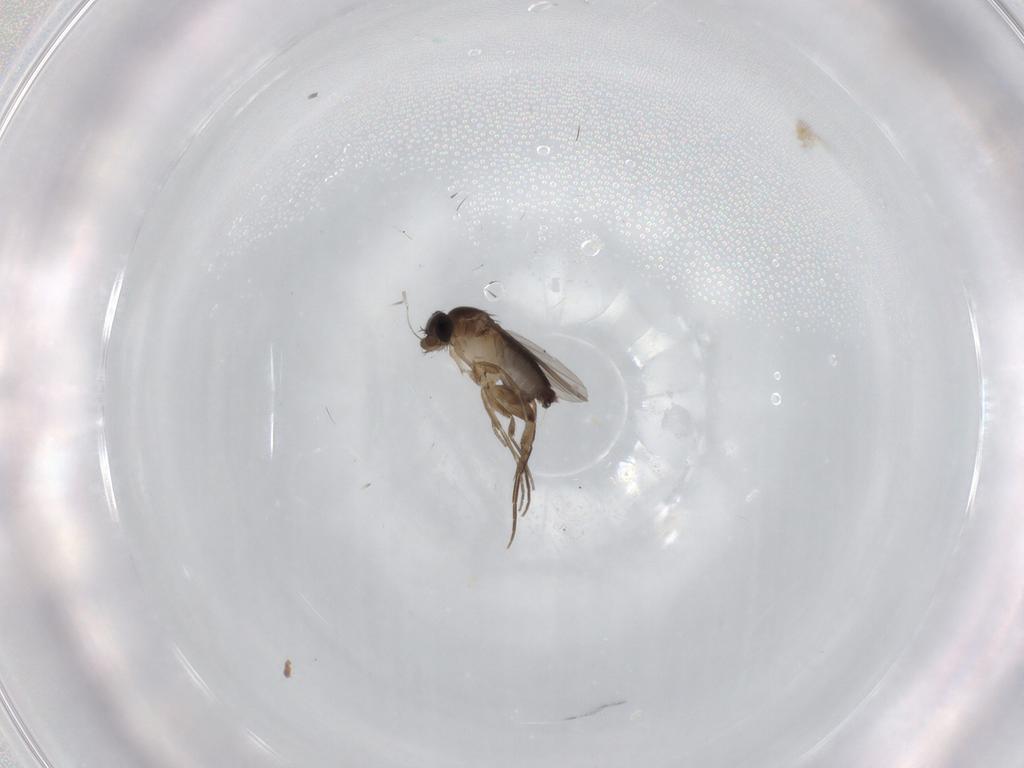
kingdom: Animalia
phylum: Arthropoda
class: Insecta
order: Diptera
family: Phoridae
